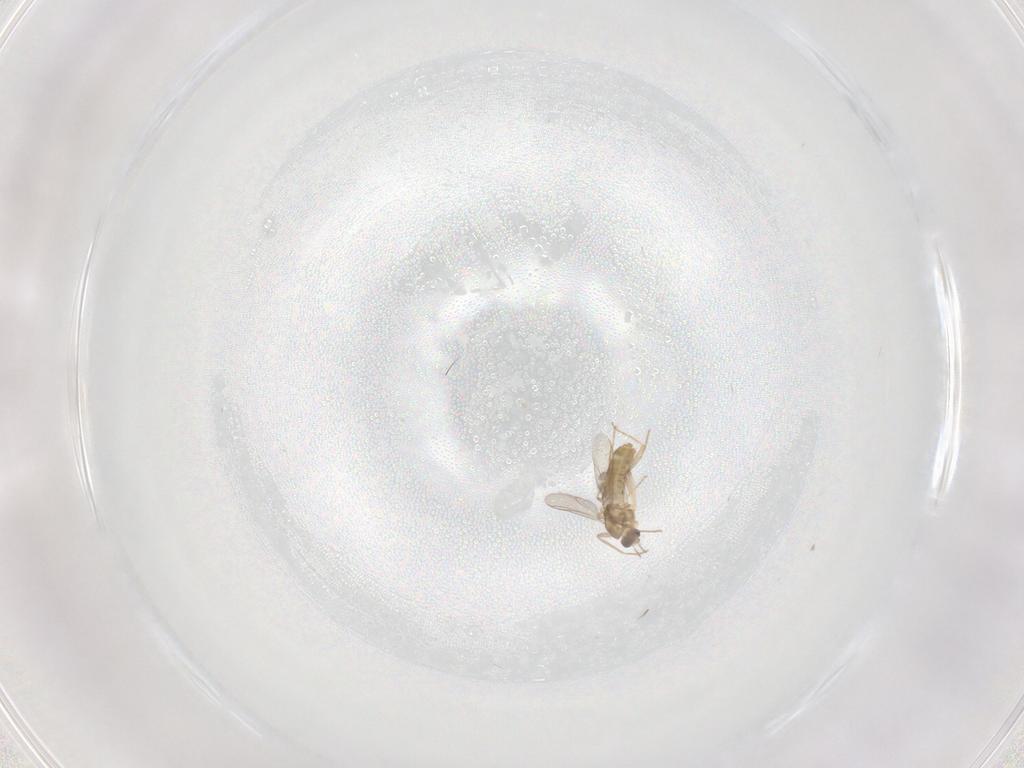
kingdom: Animalia
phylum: Arthropoda
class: Insecta
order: Diptera
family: Chironomidae
